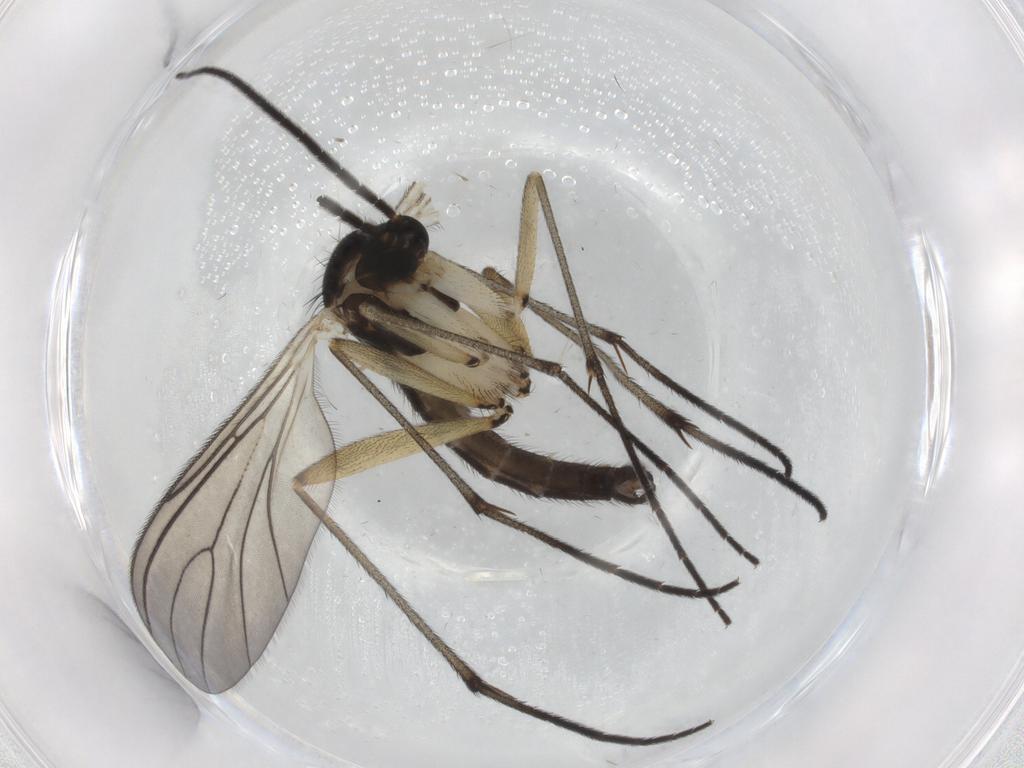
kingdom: Animalia
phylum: Arthropoda
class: Insecta
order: Diptera
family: Sciaridae
